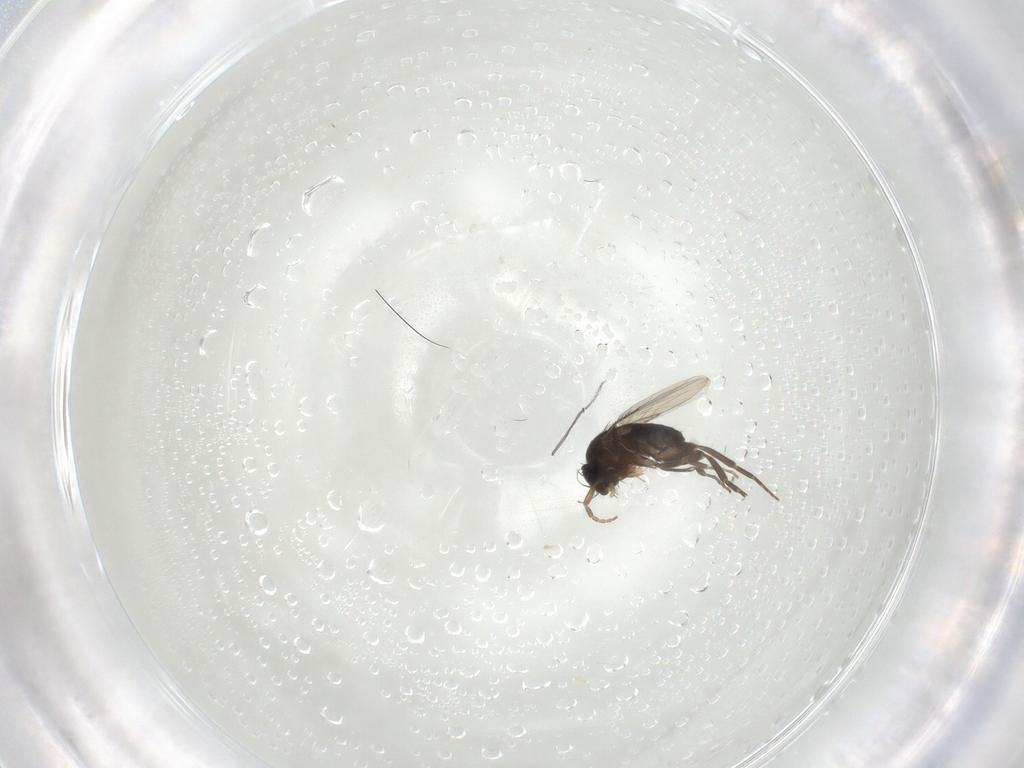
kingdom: Animalia
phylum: Arthropoda
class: Insecta
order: Diptera
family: Phoridae
